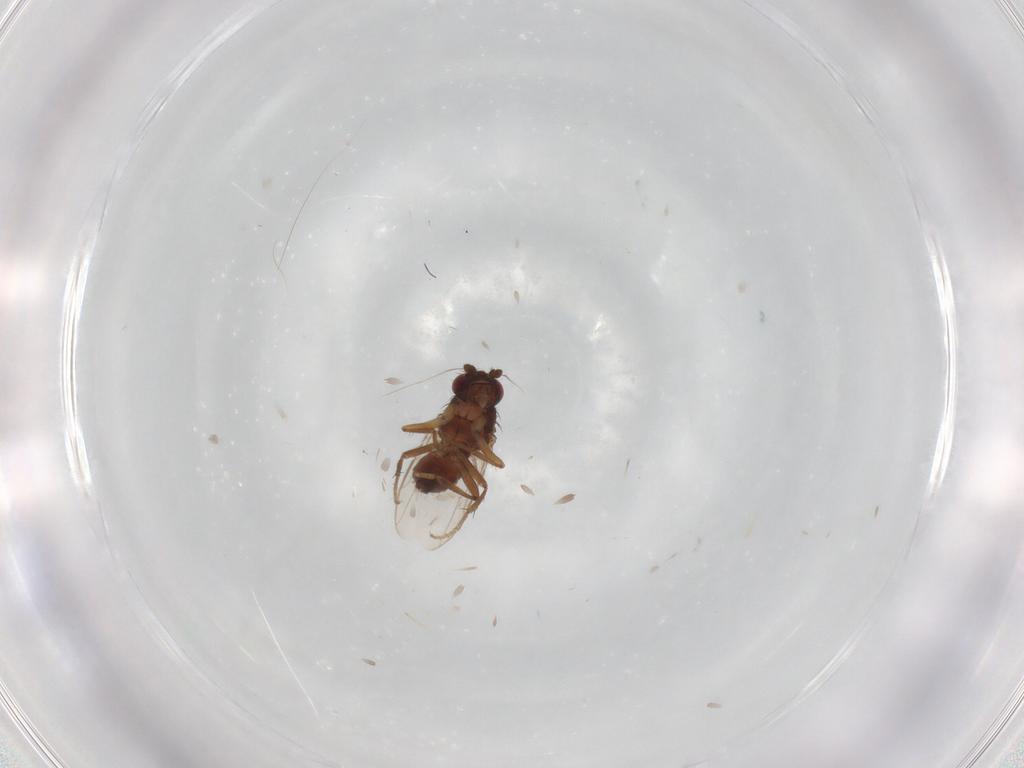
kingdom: Animalia
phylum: Arthropoda
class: Insecta
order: Diptera
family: Sphaeroceridae
